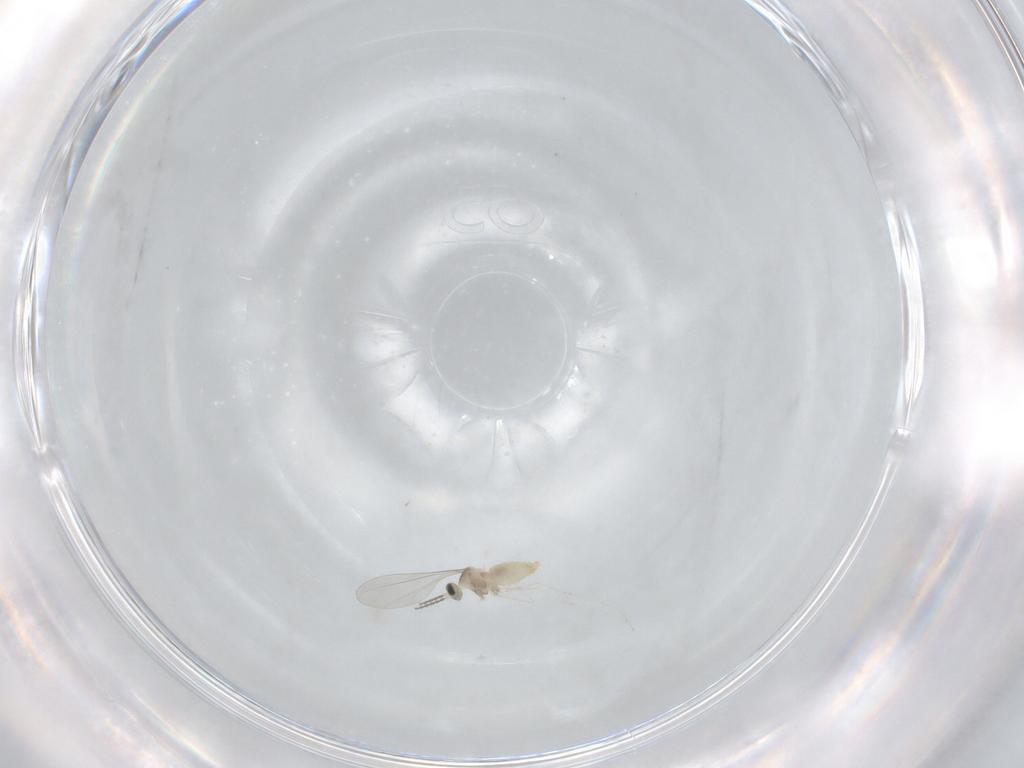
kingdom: Animalia
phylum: Arthropoda
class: Insecta
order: Diptera
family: Cecidomyiidae
